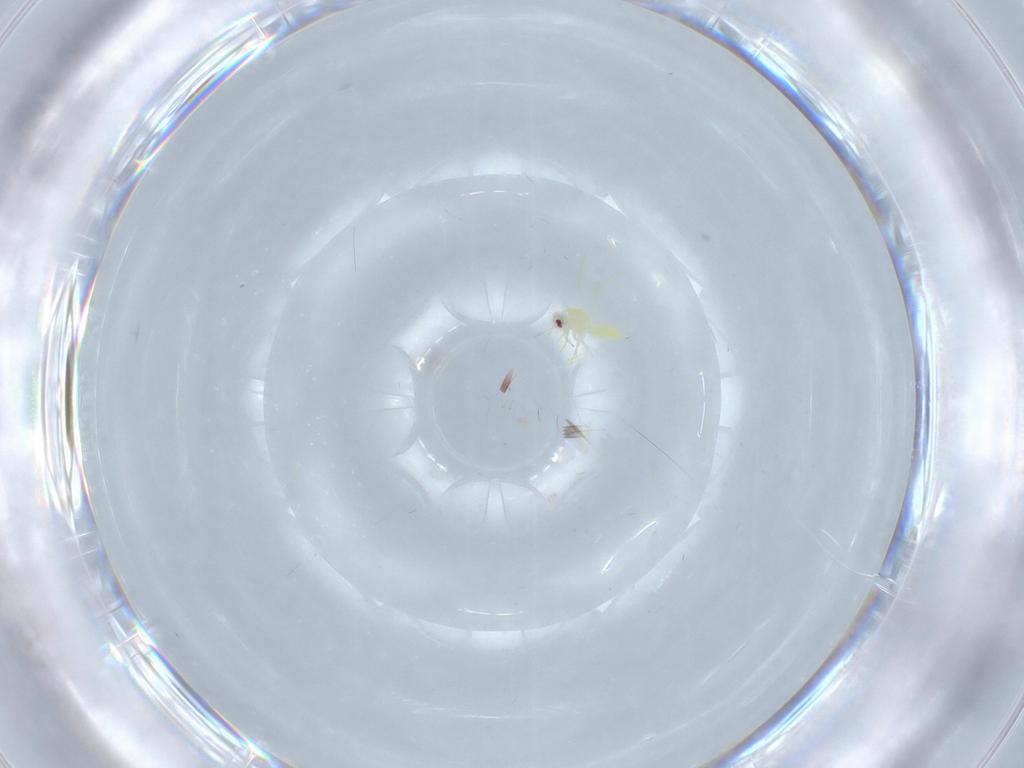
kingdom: Animalia
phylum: Arthropoda
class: Insecta
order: Hemiptera
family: Aleyrodidae
